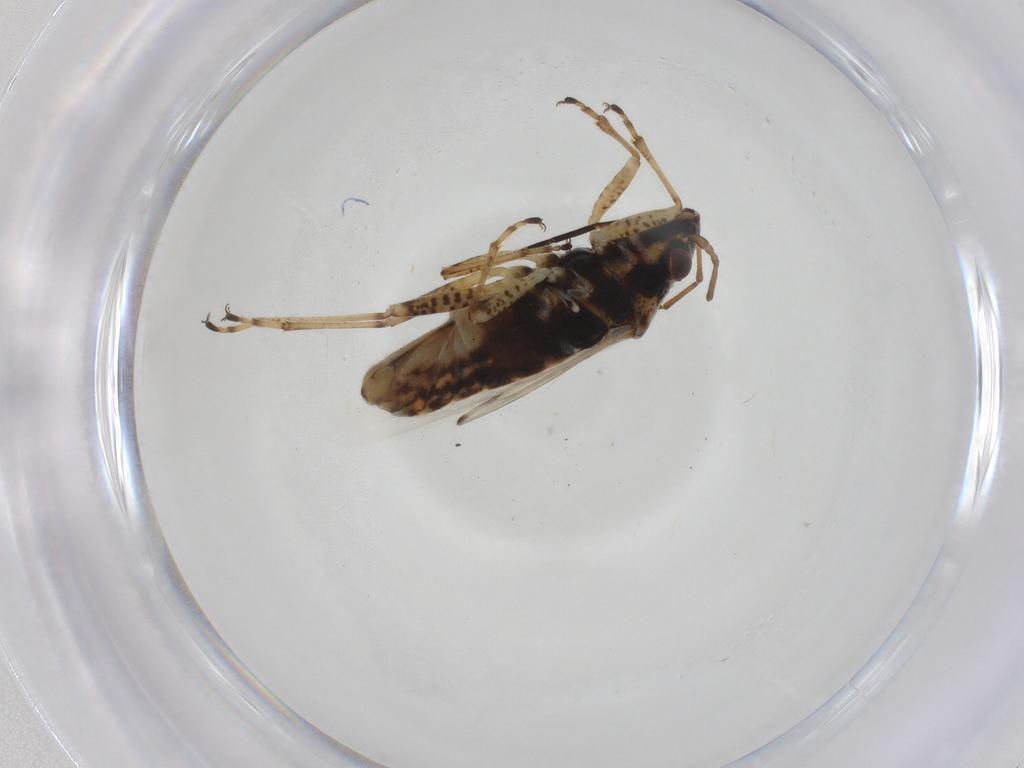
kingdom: Animalia
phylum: Arthropoda
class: Insecta
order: Hemiptera
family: Lygaeidae
